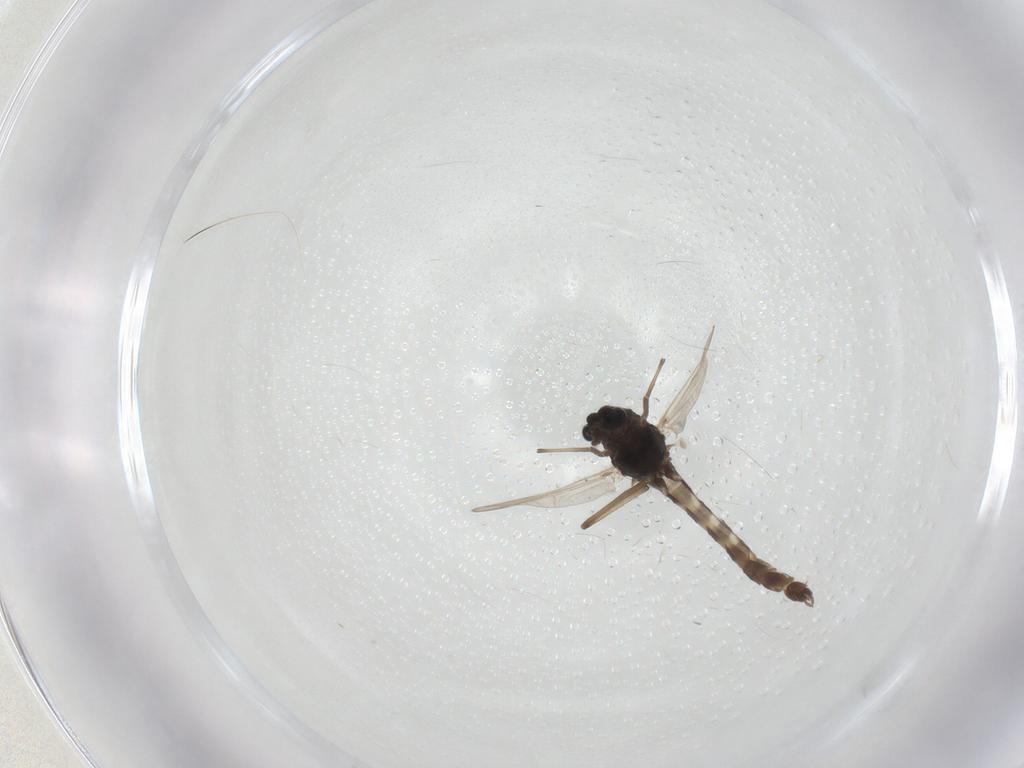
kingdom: Animalia
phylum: Arthropoda
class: Insecta
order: Diptera
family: Chironomidae
